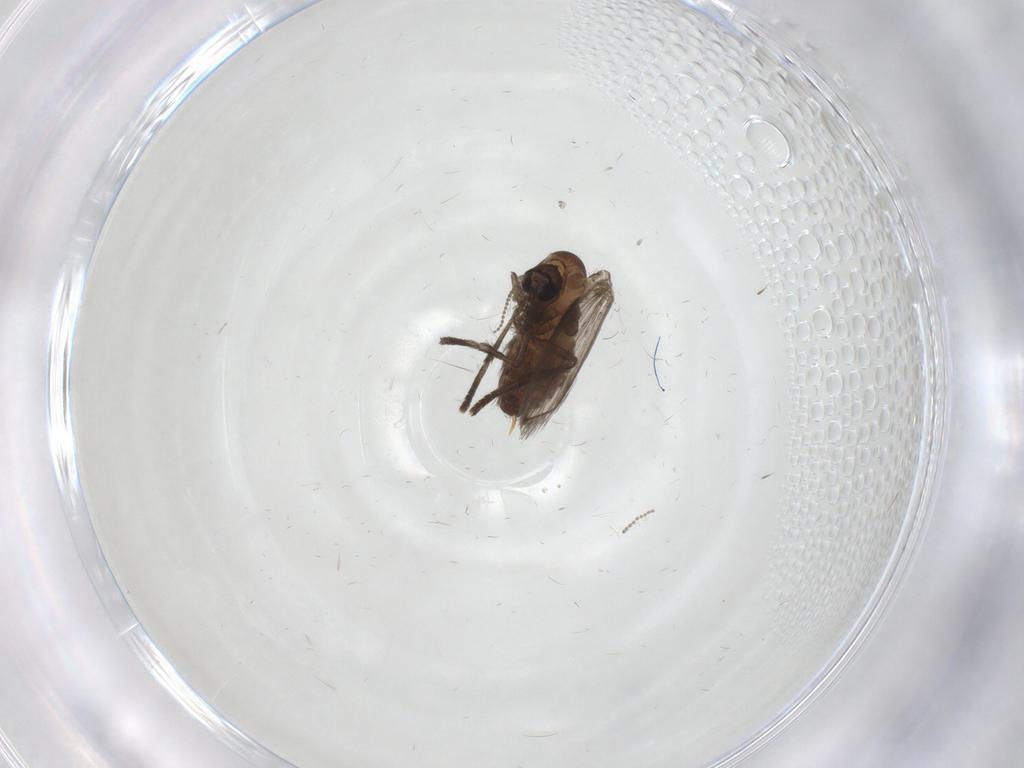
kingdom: Animalia
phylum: Arthropoda
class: Insecta
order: Diptera
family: Psychodidae
